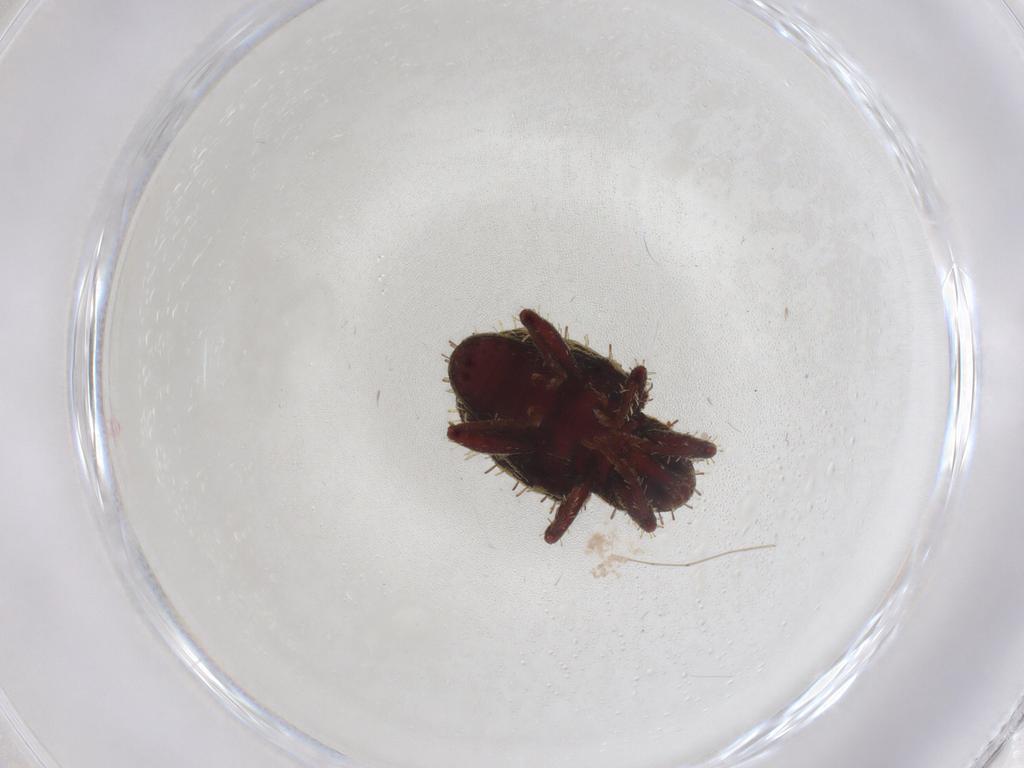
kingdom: Animalia
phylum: Arthropoda
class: Insecta
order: Coleoptera
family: Curculionidae
